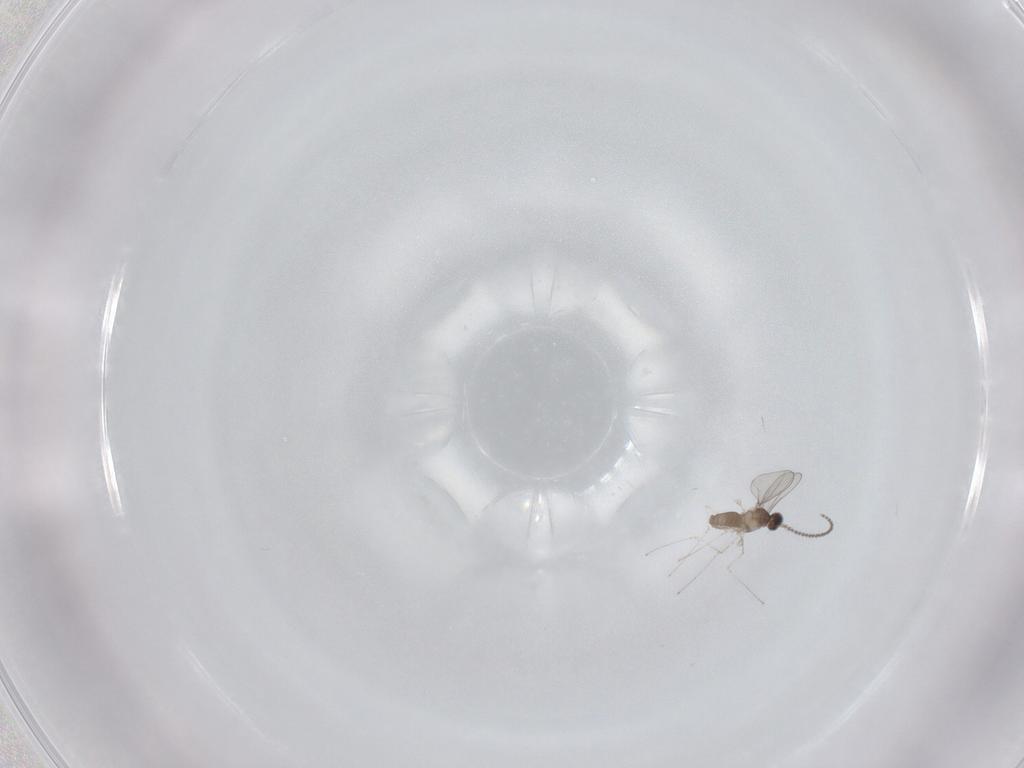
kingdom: Animalia
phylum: Arthropoda
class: Insecta
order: Diptera
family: Cecidomyiidae
